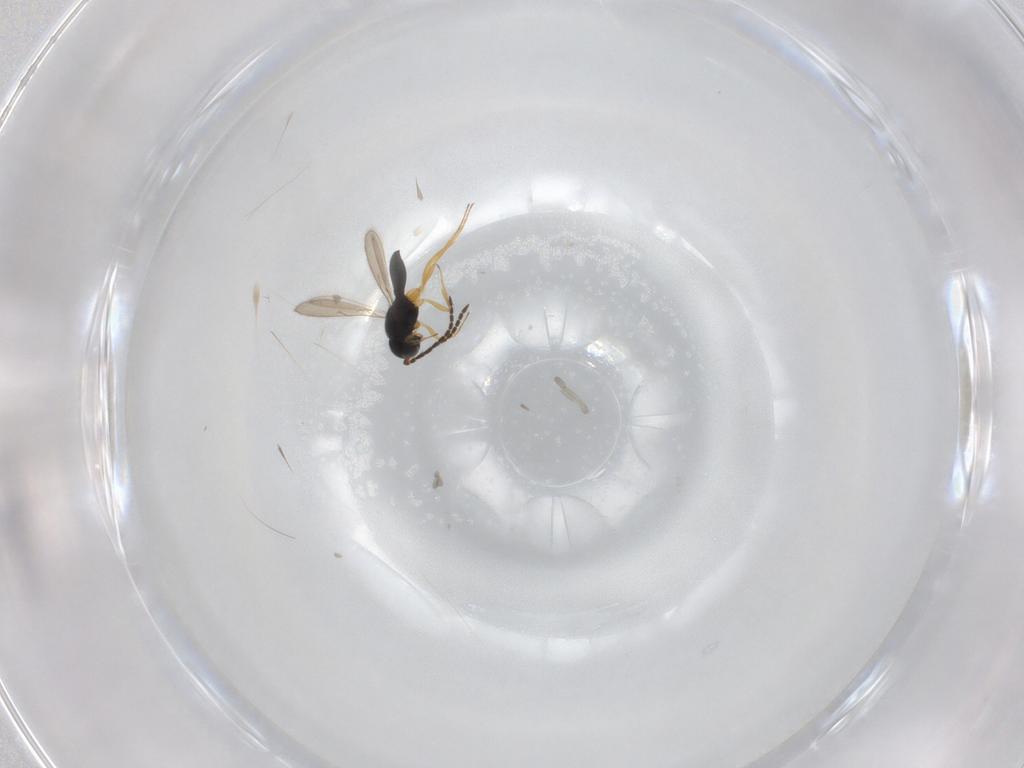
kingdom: Animalia
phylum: Arthropoda
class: Insecta
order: Hymenoptera
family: Scelionidae
